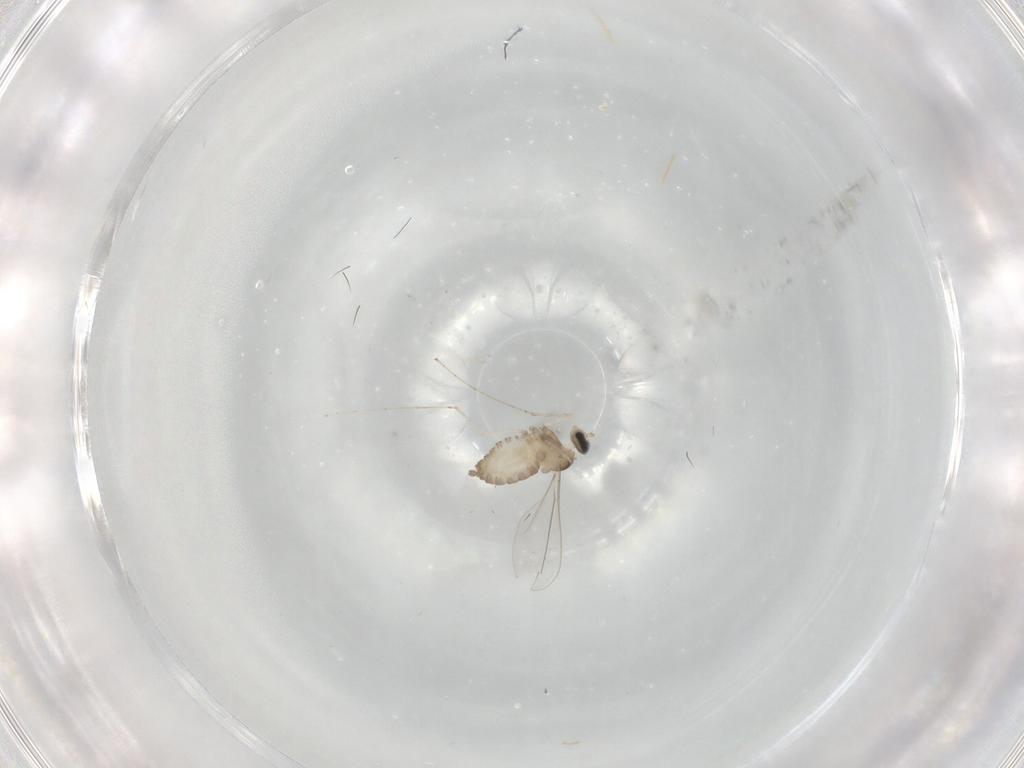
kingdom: Animalia
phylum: Arthropoda
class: Insecta
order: Diptera
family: Cecidomyiidae
